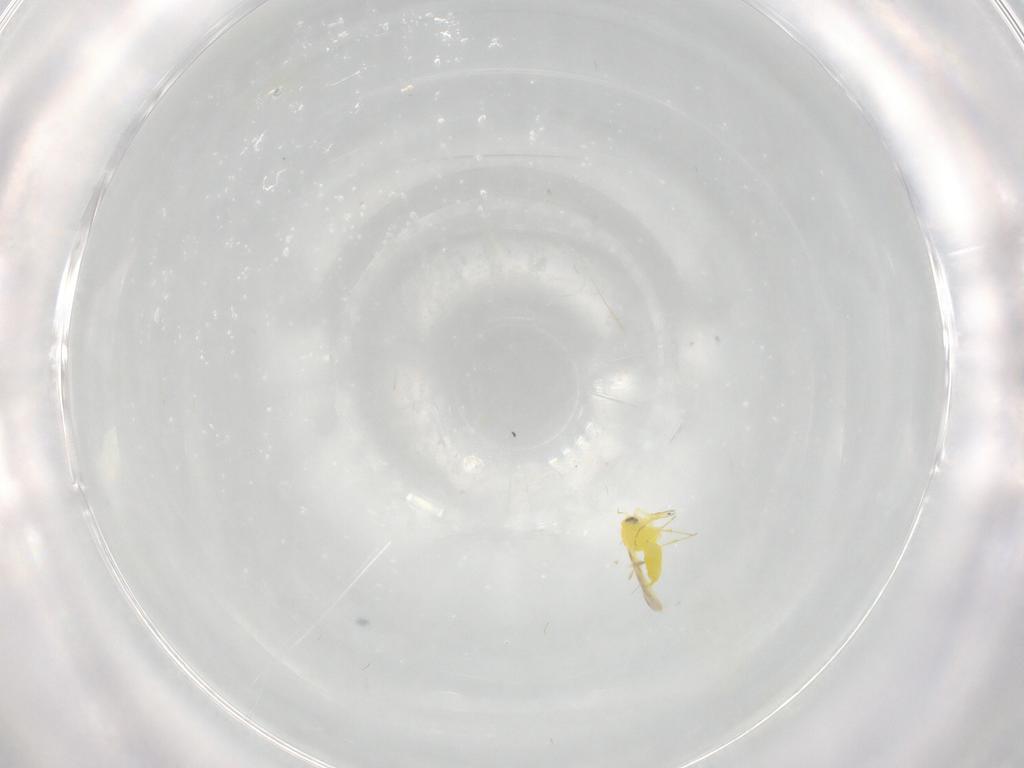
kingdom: Animalia
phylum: Arthropoda
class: Insecta
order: Hemiptera
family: Aleyrodidae
